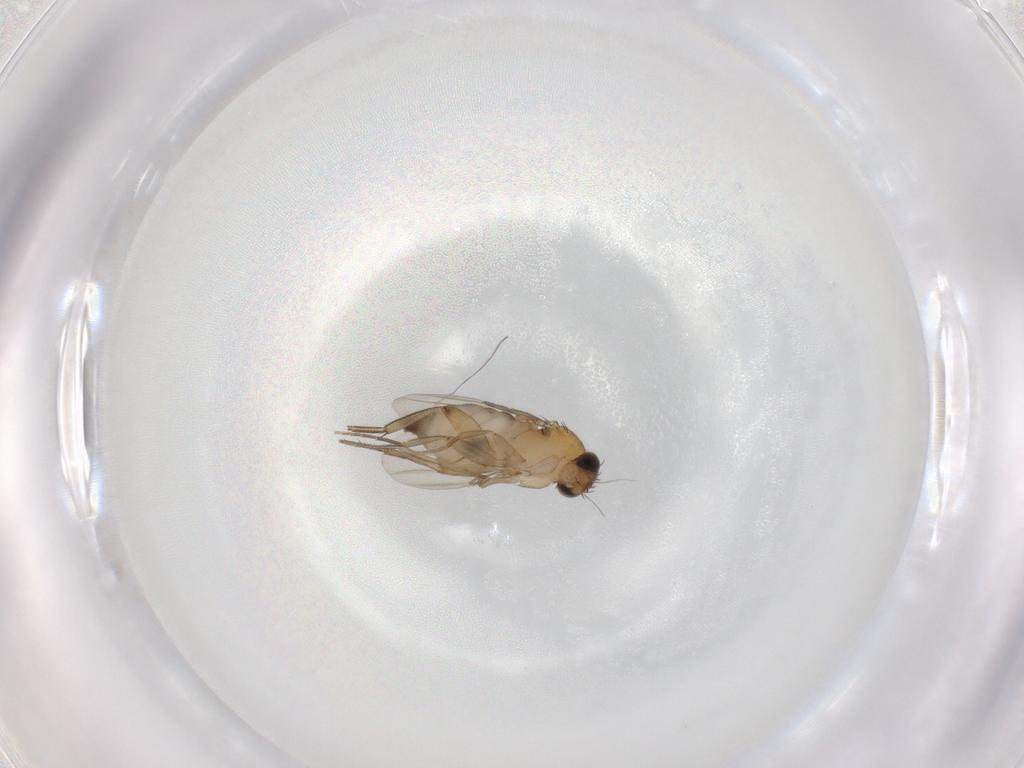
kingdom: Animalia
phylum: Arthropoda
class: Insecta
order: Diptera
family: Phoridae
